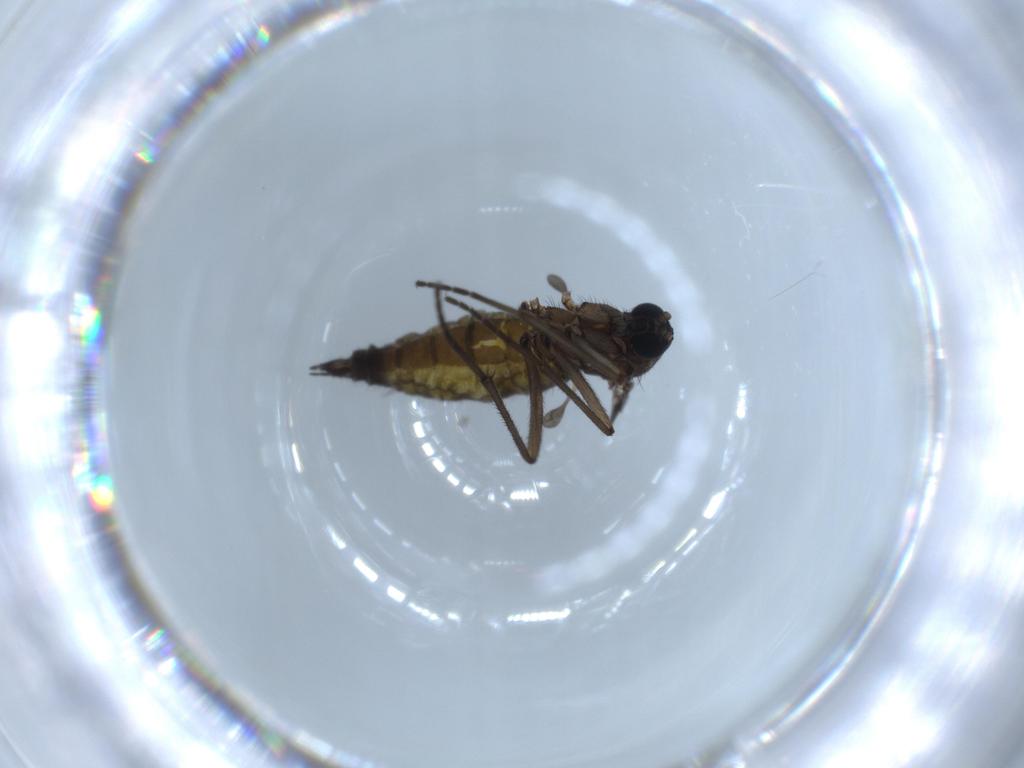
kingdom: Animalia
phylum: Arthropoda
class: Insecta
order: Diptera
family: Sciaridae
